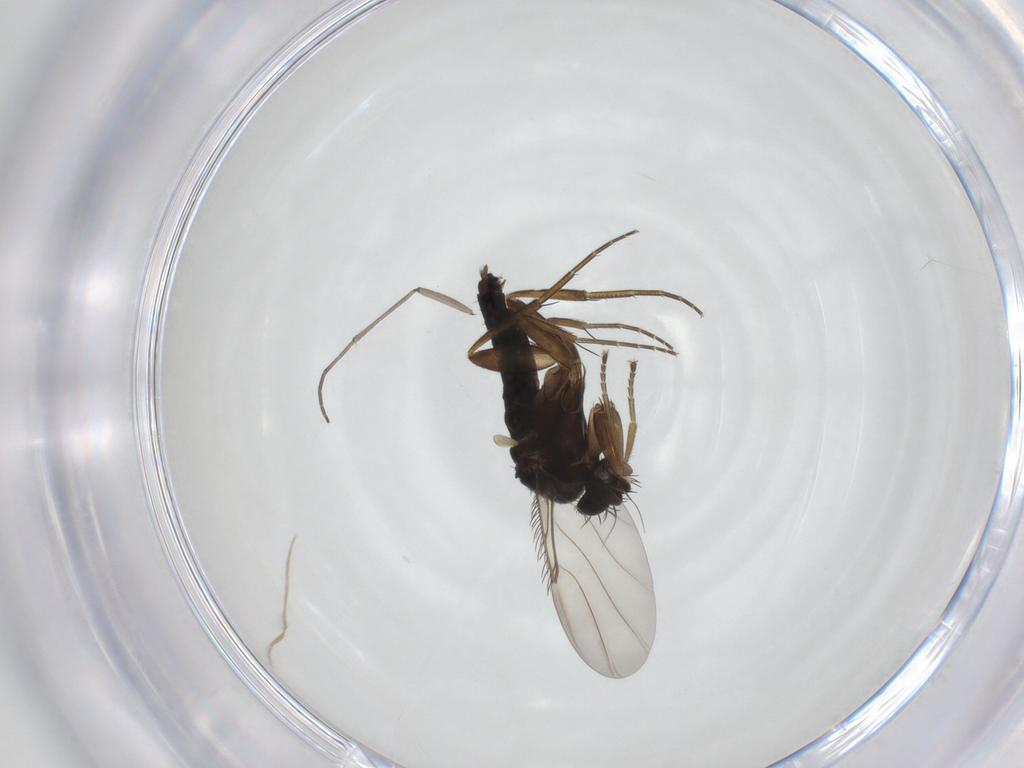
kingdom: Animalia
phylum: Arthropoda
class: Insecta
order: Diptera
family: Phoridae
